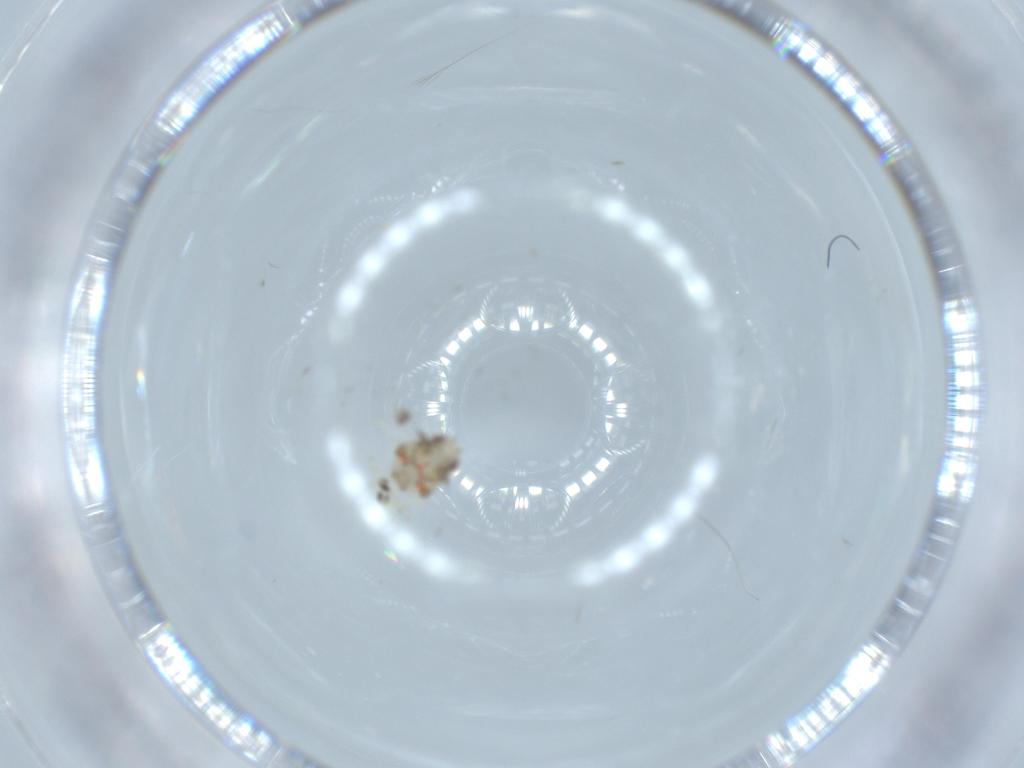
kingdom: Animalia
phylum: Arthropoda
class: Insecta
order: Hemiptera
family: Nogodinidae
